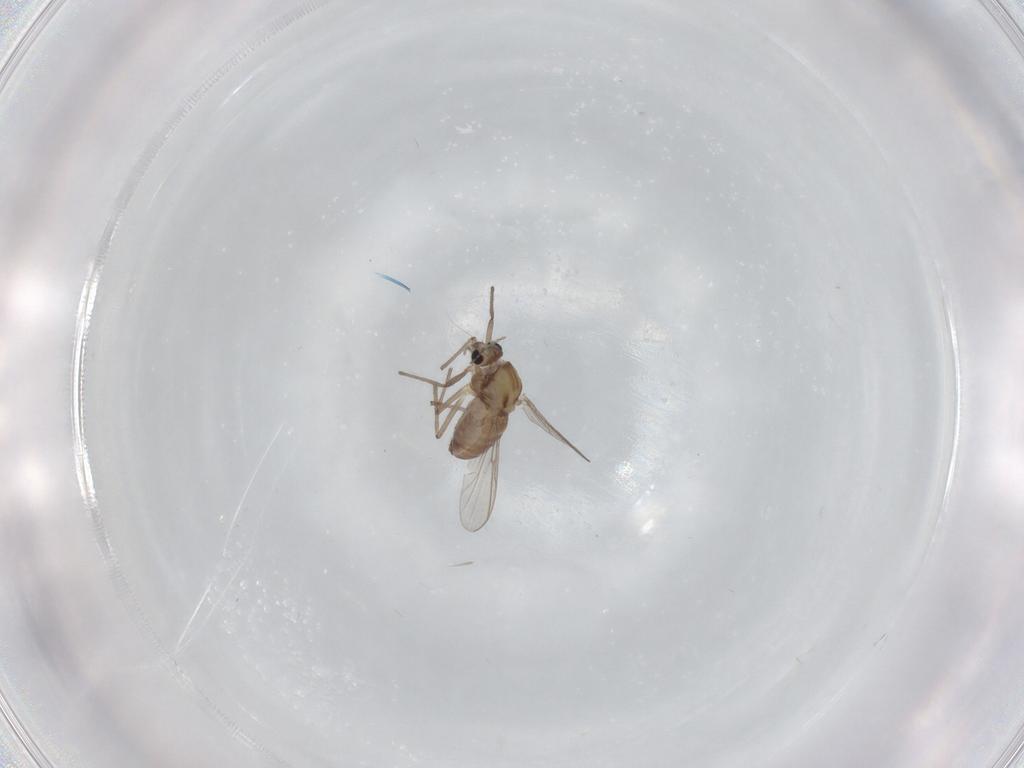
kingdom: Animalia
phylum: Arthropoda
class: Insecta
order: Diptera
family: Chironomidae
